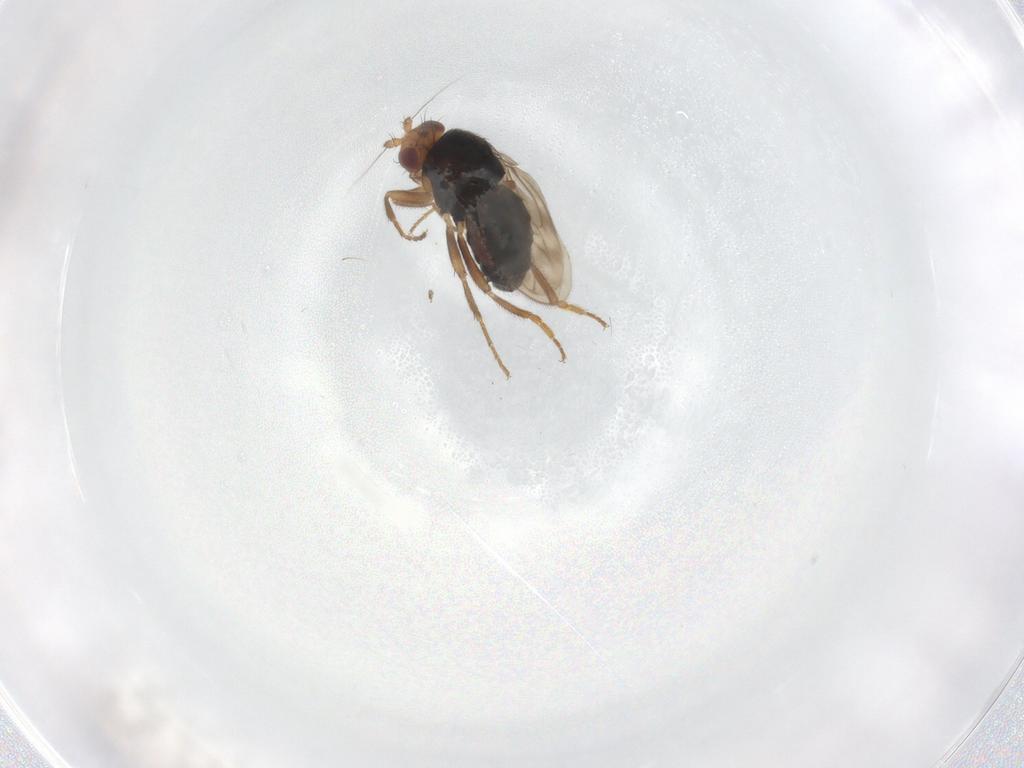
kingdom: Animalia
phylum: Arthropoda
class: Insecta
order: Diptera
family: Sphaeroceridae
